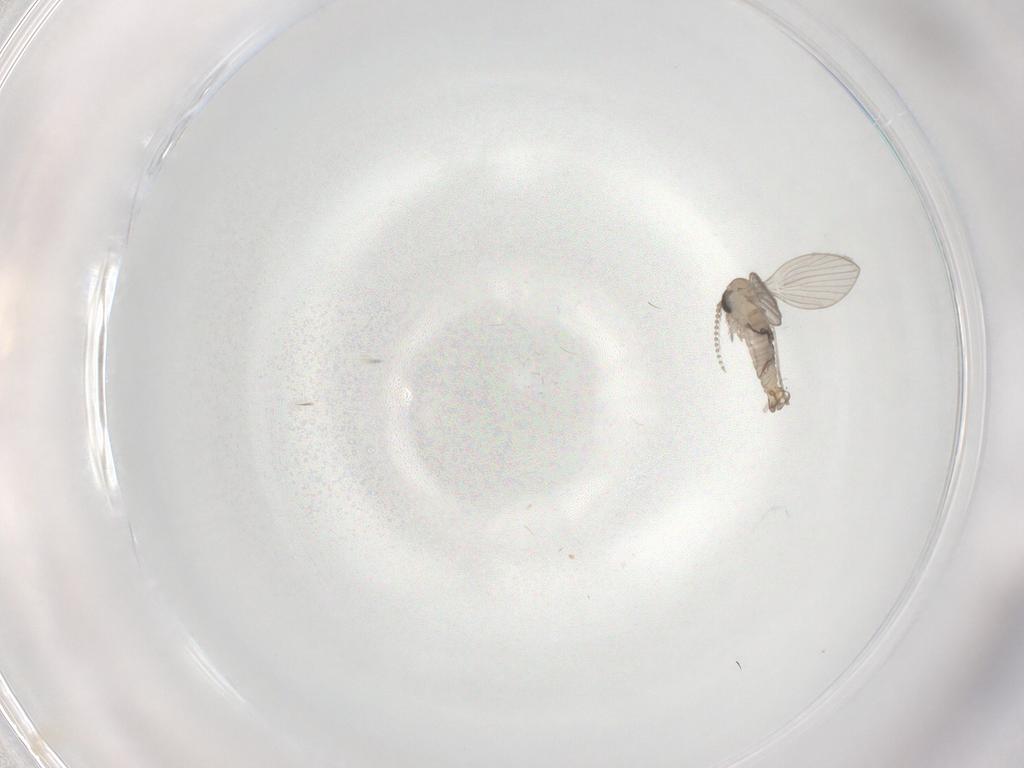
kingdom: Animalia
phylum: Arthropoda
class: Insecta
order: Diptera
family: Psychodidae
